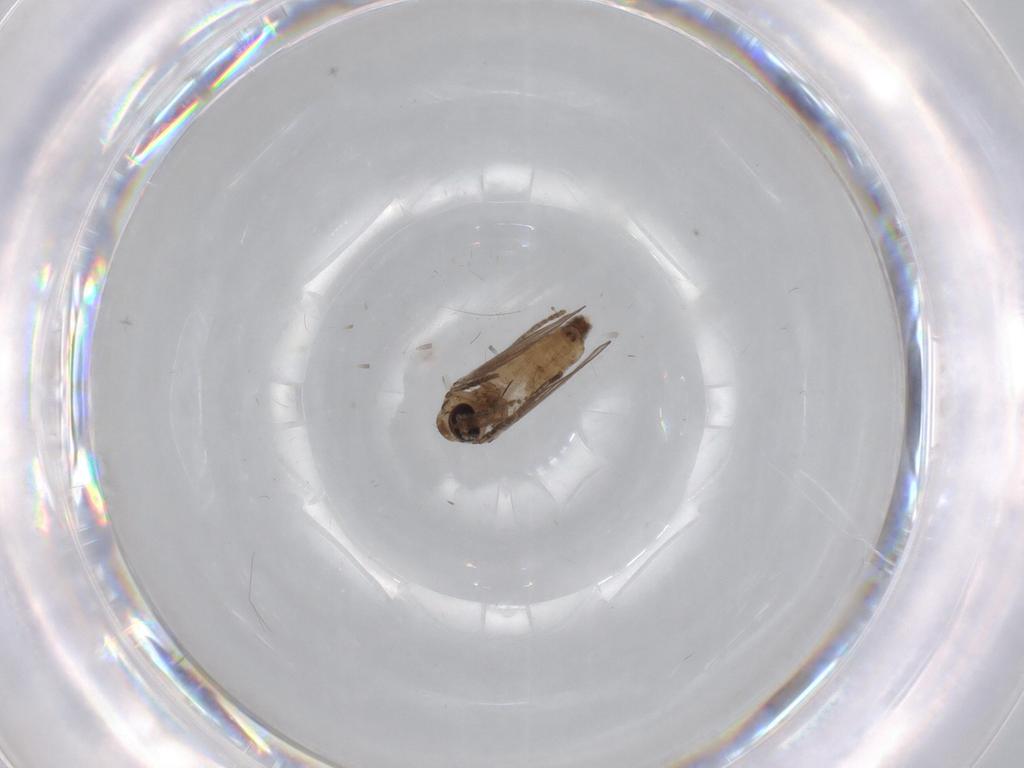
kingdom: Animalia
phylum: Arthropoda
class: Insecta
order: Diptera
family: Psychodidae
